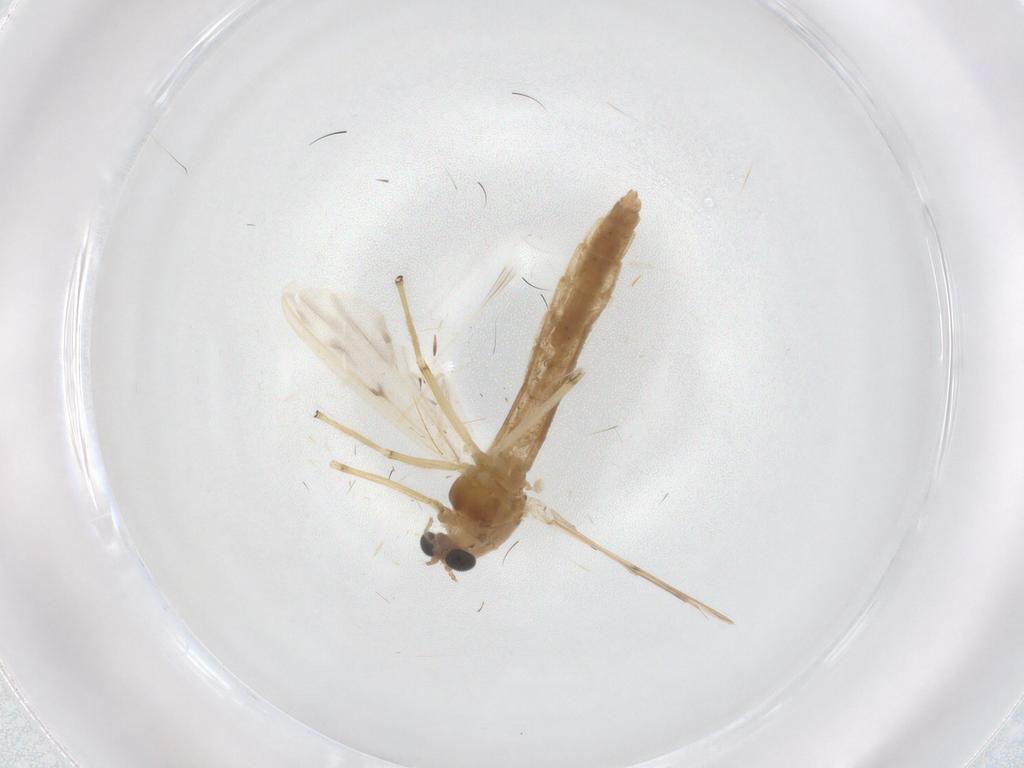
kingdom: Animalia
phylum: Arthropoda
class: Insecta
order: Diptera
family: Chironomidae
